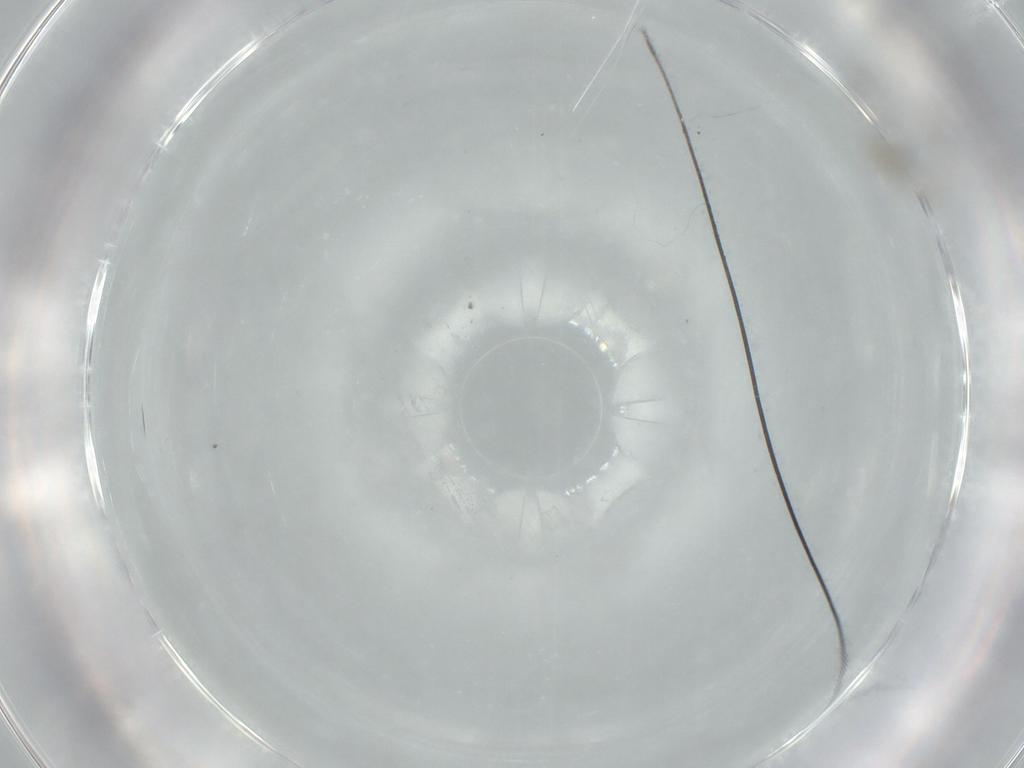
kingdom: Animalia
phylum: Arthropoda
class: Insecta
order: Hymenoptera
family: Mymaridae
